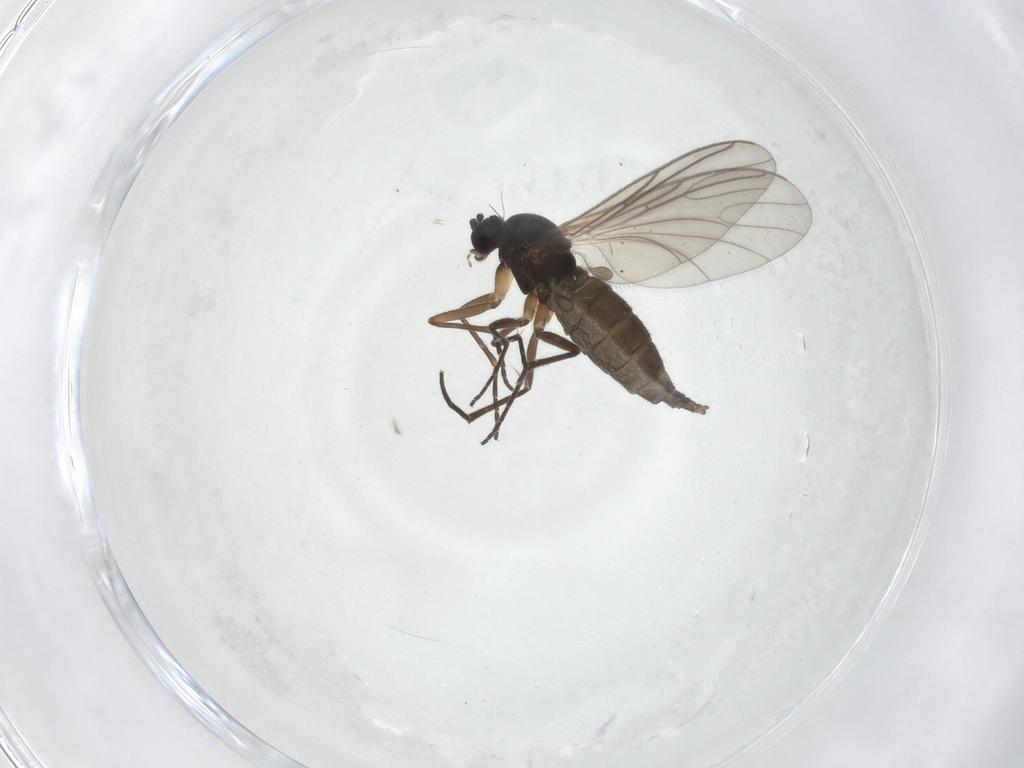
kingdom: Animalia
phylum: Arthropoda
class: Insecta
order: Diptera
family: Sciaridae
